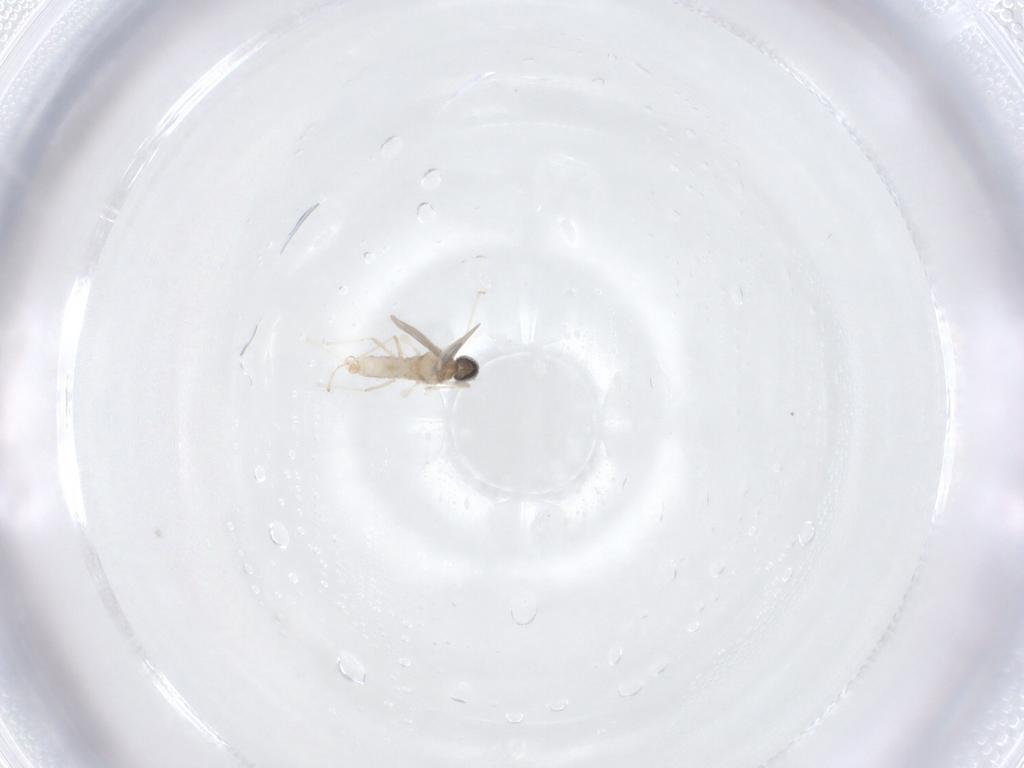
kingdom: Animalia
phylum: Arthropoda
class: Insecta
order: Diptera
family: Cecidomyiidae
